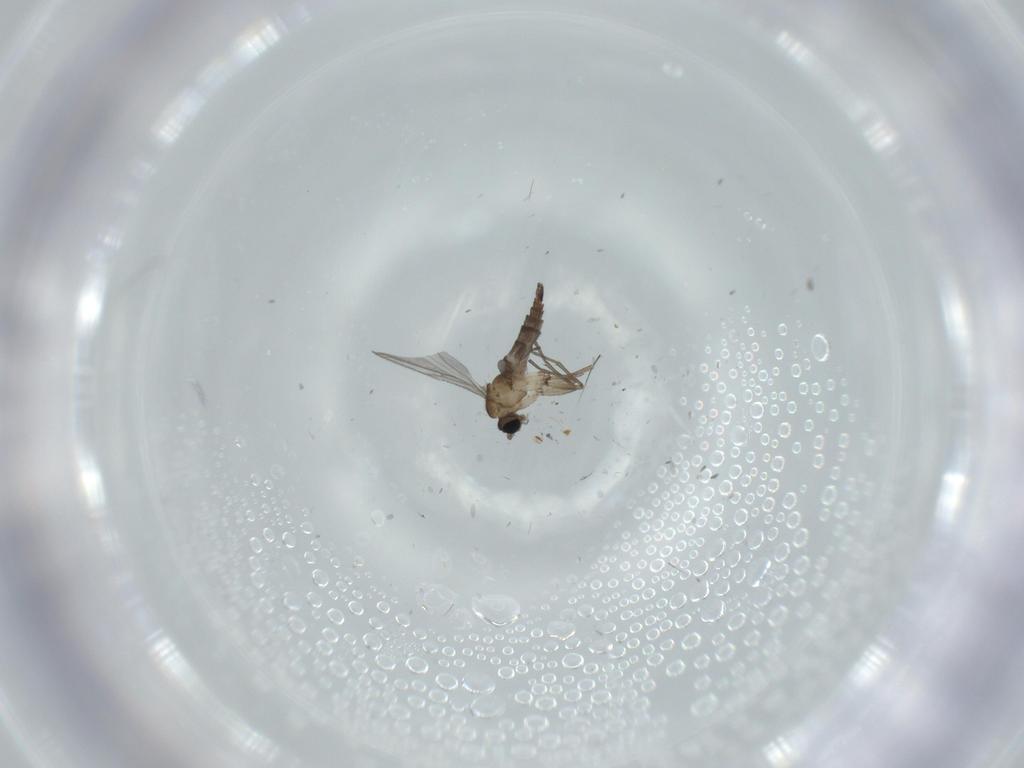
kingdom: Animalia
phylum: Arthropoda
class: Insecta
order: Diptera
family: Sciaridae
